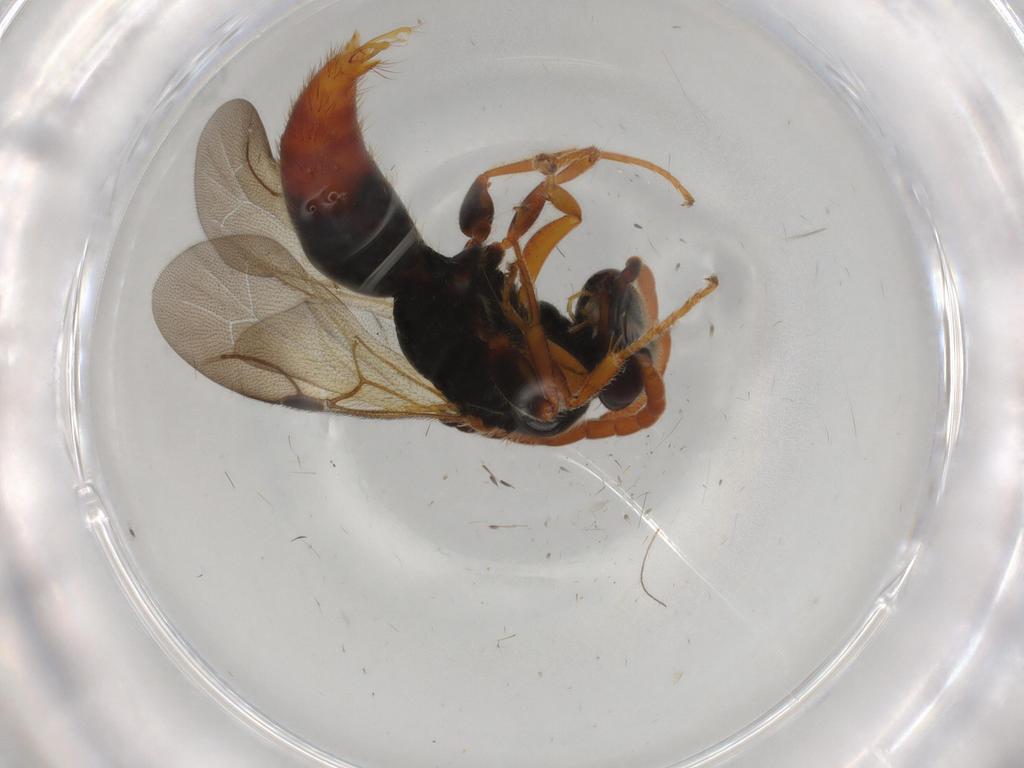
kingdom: Animalia
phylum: Arthropoda
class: Insecta
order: Hymenoptera
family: Bethylidae
